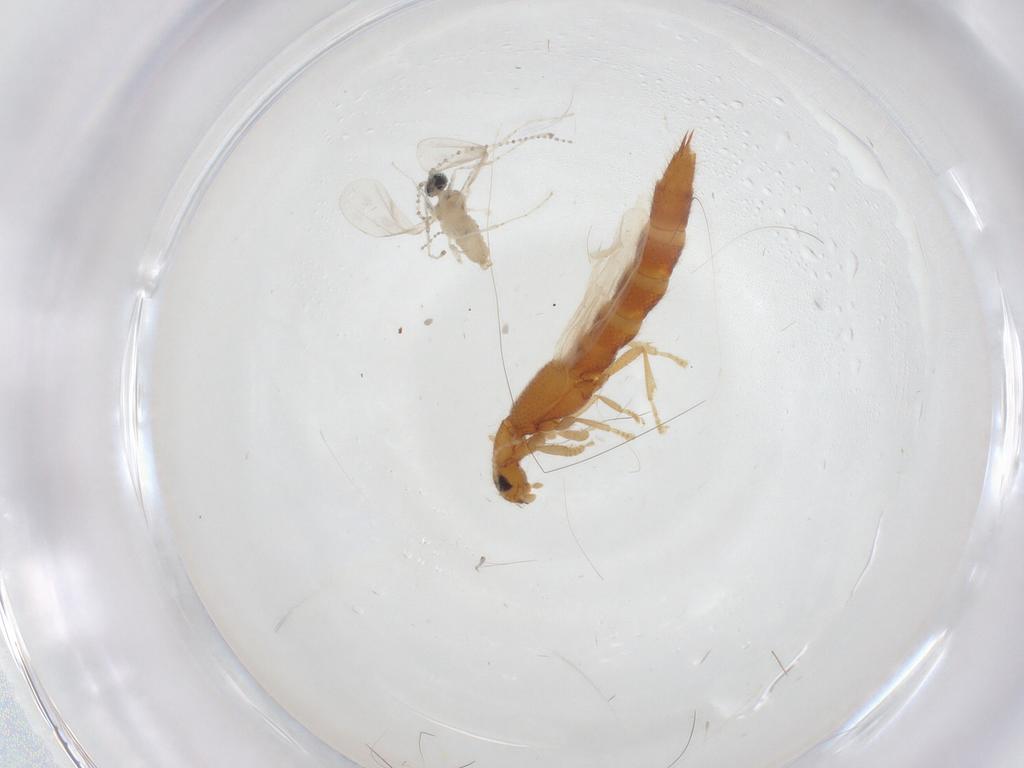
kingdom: Animalia
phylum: Arthropoda
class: Insecta
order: Diptera
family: Cecidomyiidae
